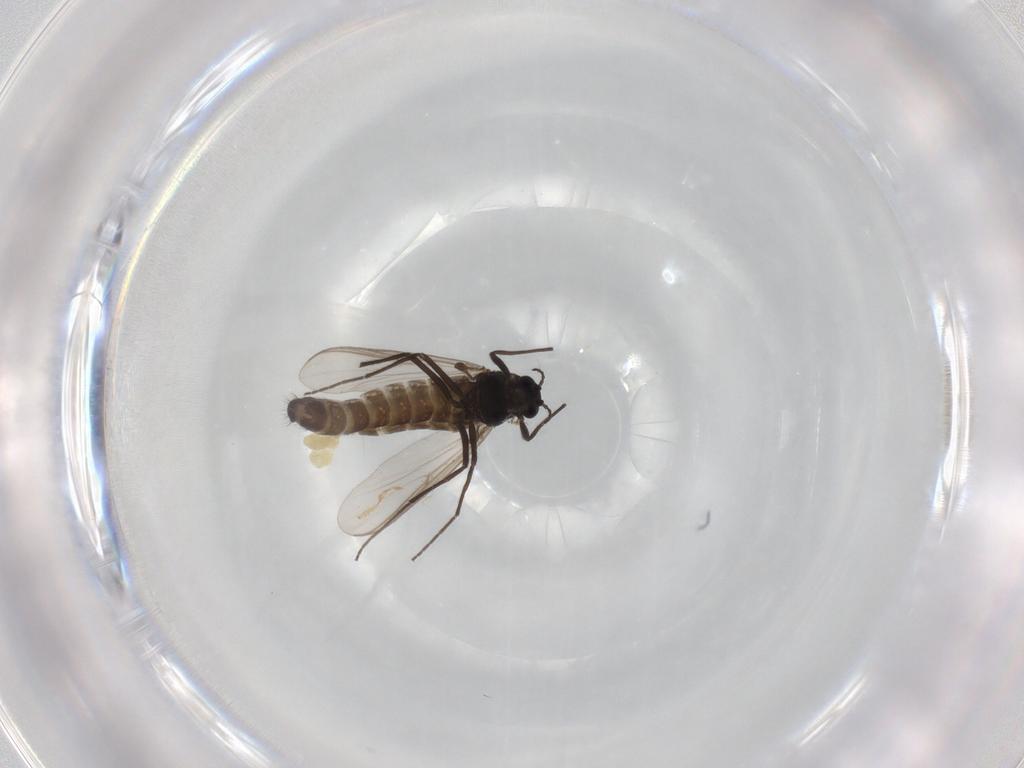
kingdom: Animalia
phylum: Arthropoda
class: Insecta
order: Diptera
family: Chironomidae
